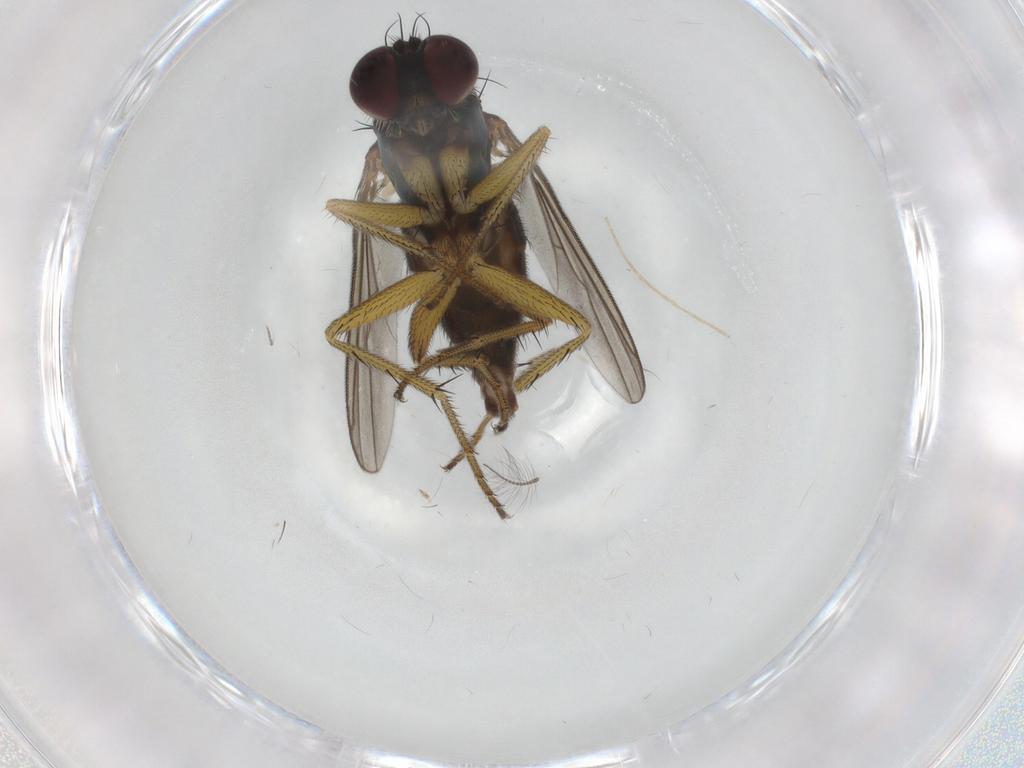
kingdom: Animalia
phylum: Arthropoda
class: Insecta
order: Diptera
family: Dolichopodidae
